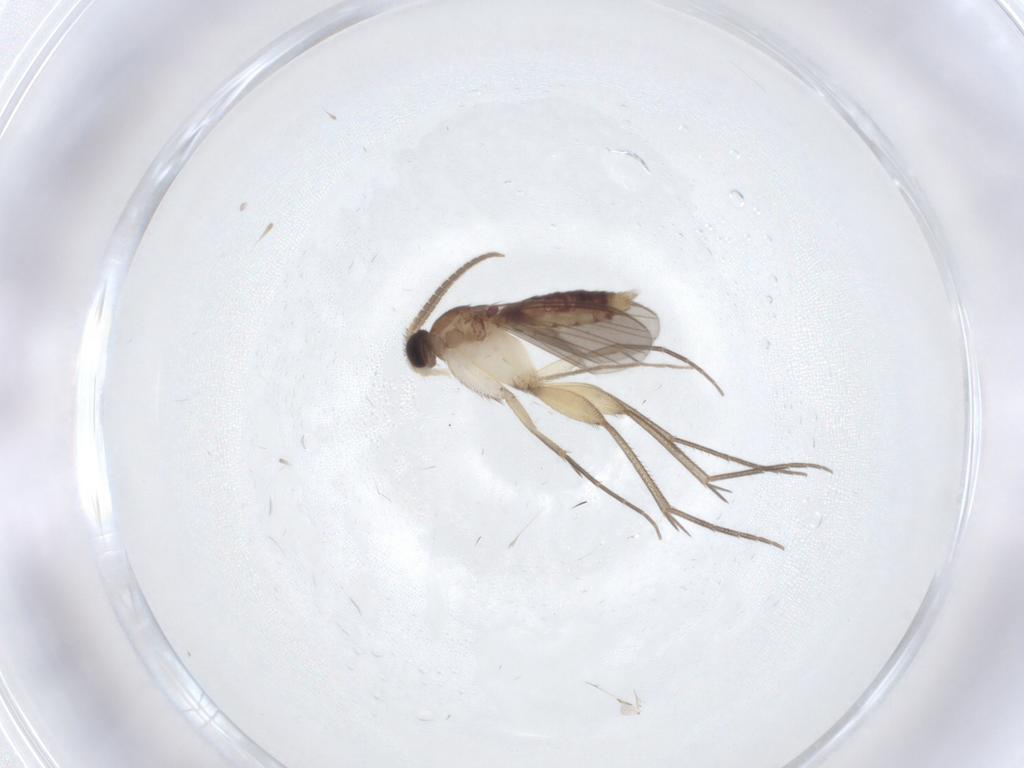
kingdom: Animalia
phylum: Arthropoda
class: Insecta
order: Diptera
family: Mycetophilidae
